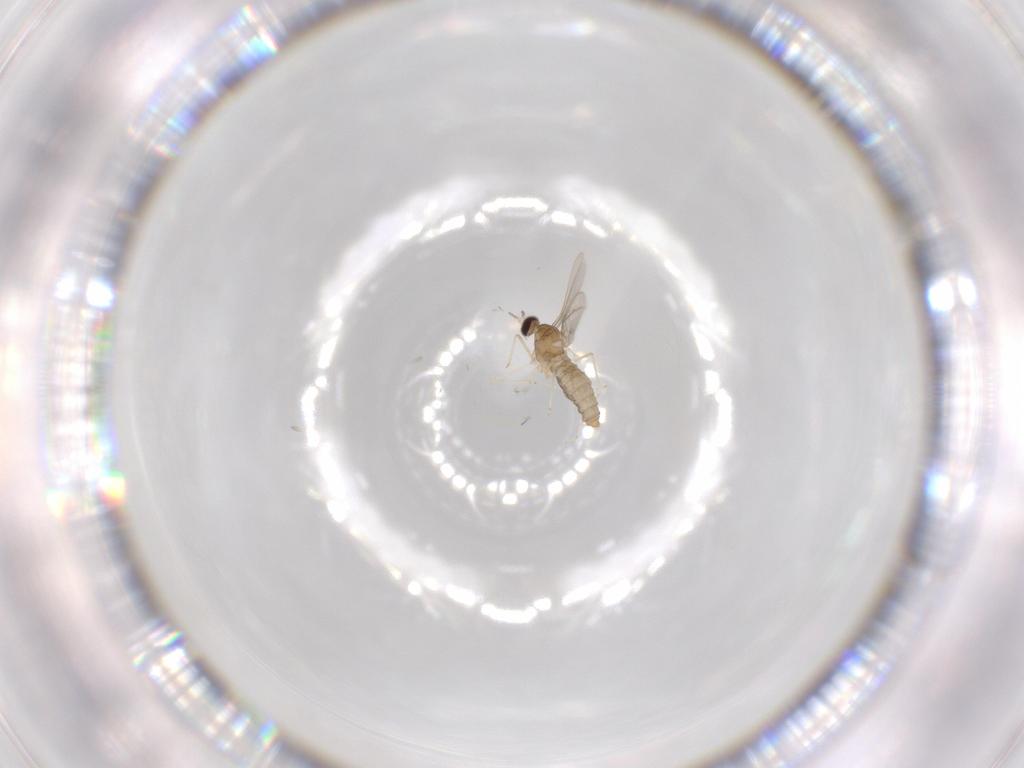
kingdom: Animalia
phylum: Arthropoda
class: Insecta
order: Diptera
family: Cecidomyiidae
